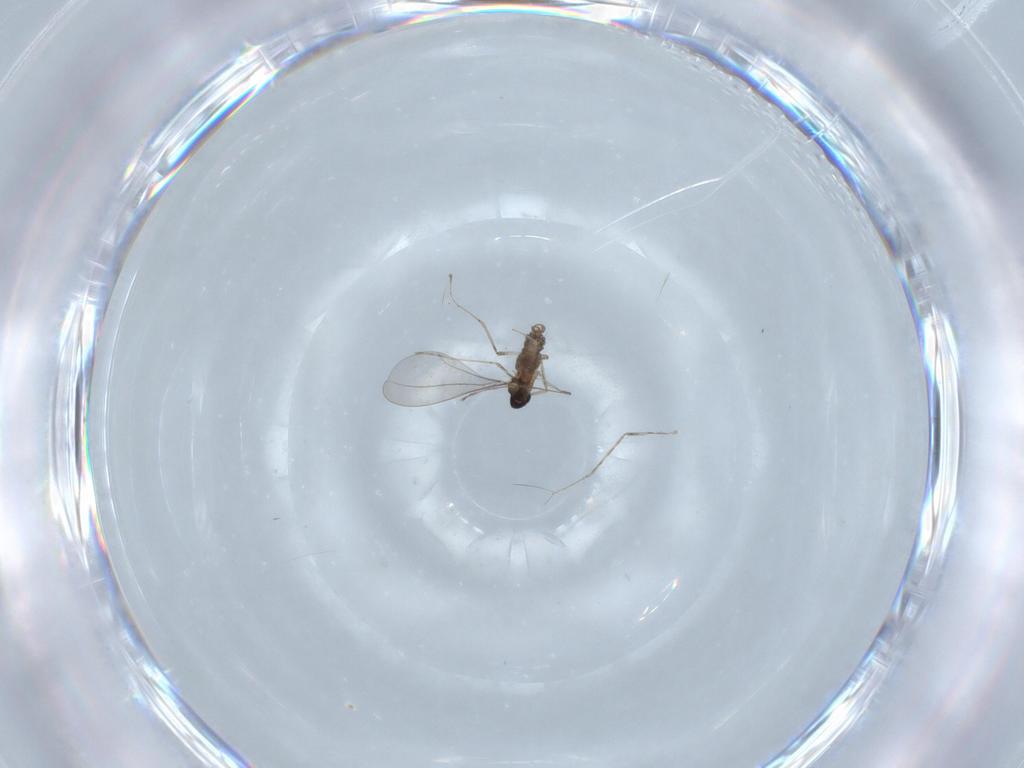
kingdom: Animalia
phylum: Arthropoda
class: Insecta
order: Diptera
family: Cecidomyiidae
